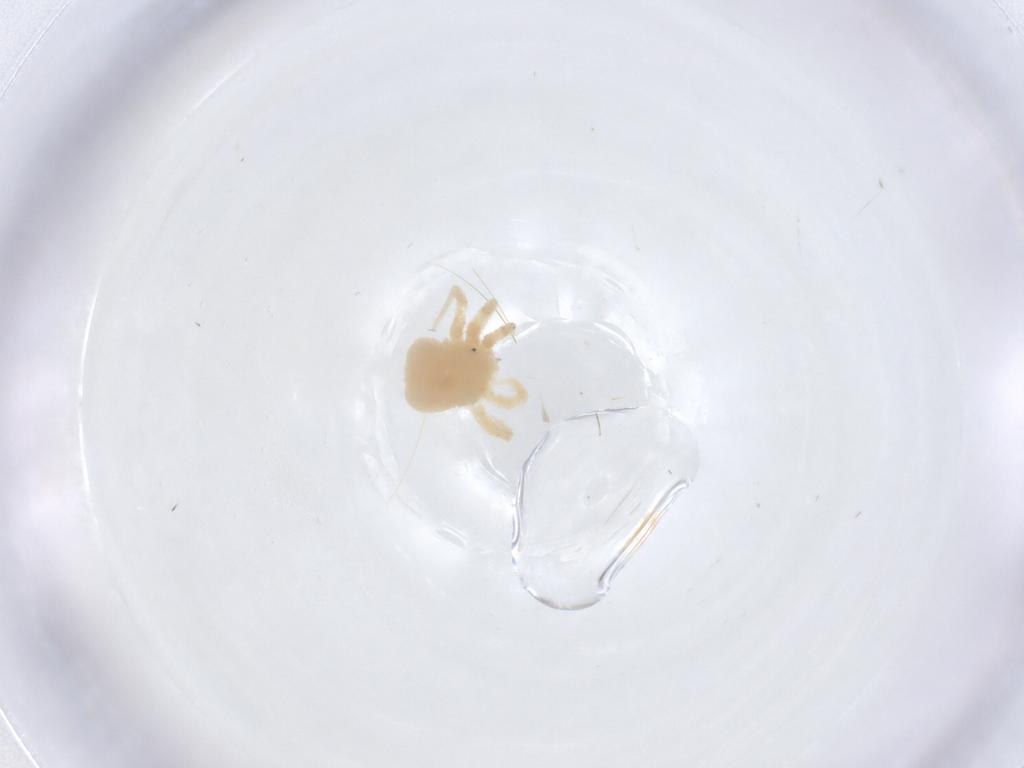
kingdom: Animalia
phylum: Arthropoda
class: Arachnida
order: Trombidiformes
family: Anystidae
